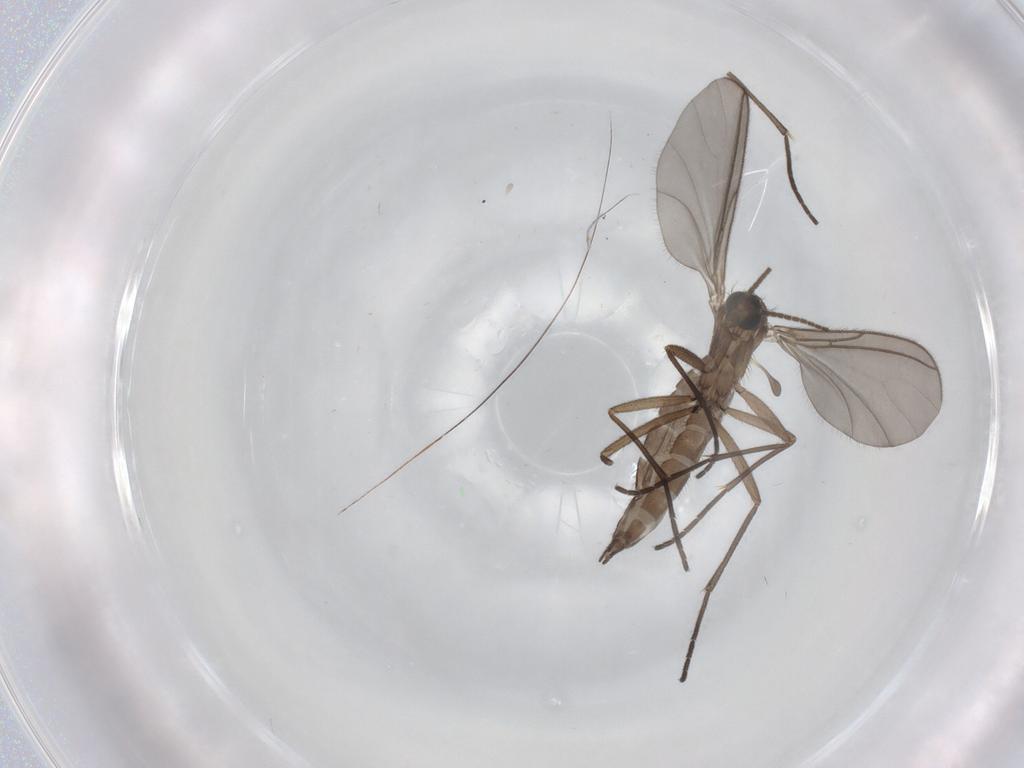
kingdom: Animalia
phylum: Arthropoda
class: Insecta
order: Diptera
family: Sciaridae
